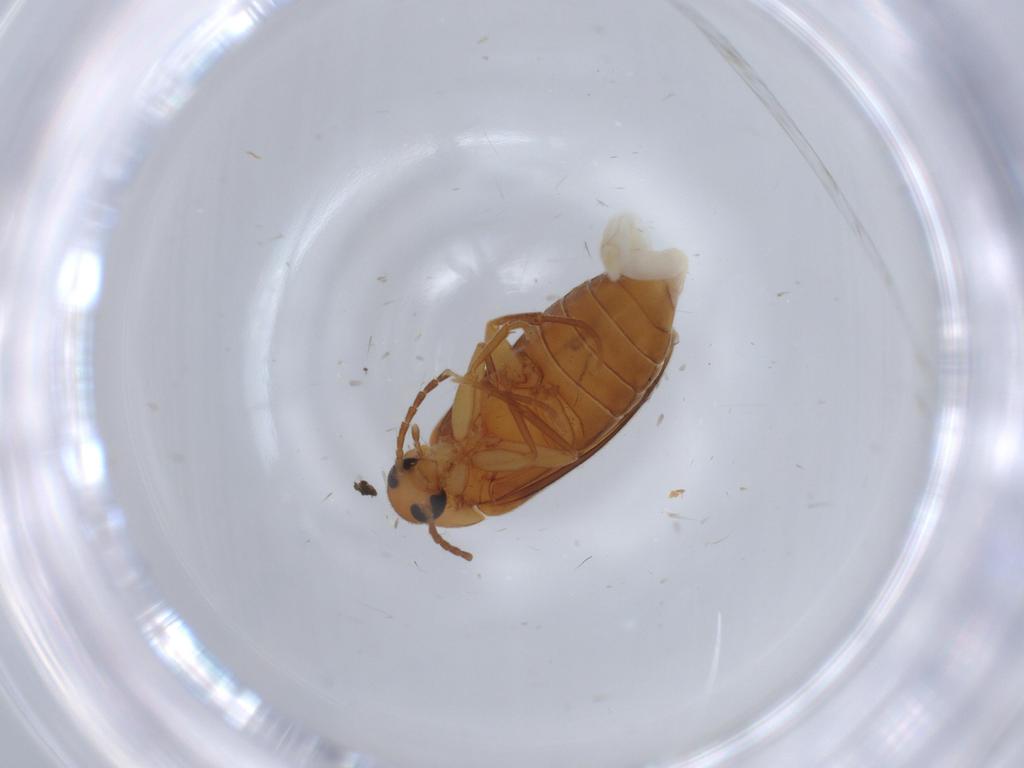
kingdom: Animalia
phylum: Arthropoda
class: Insecta
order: Coleoptera
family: Scraptiidae
